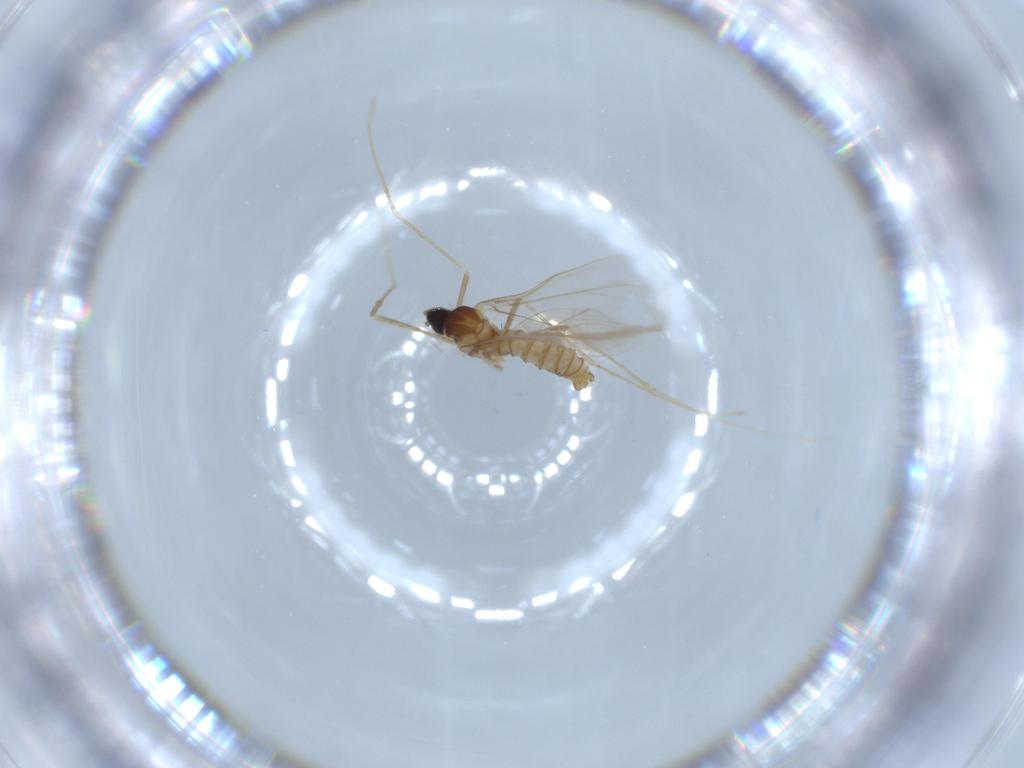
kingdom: Animalia
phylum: Arthropoda
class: Insecta
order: Diptera
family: Cecidomyiidae
